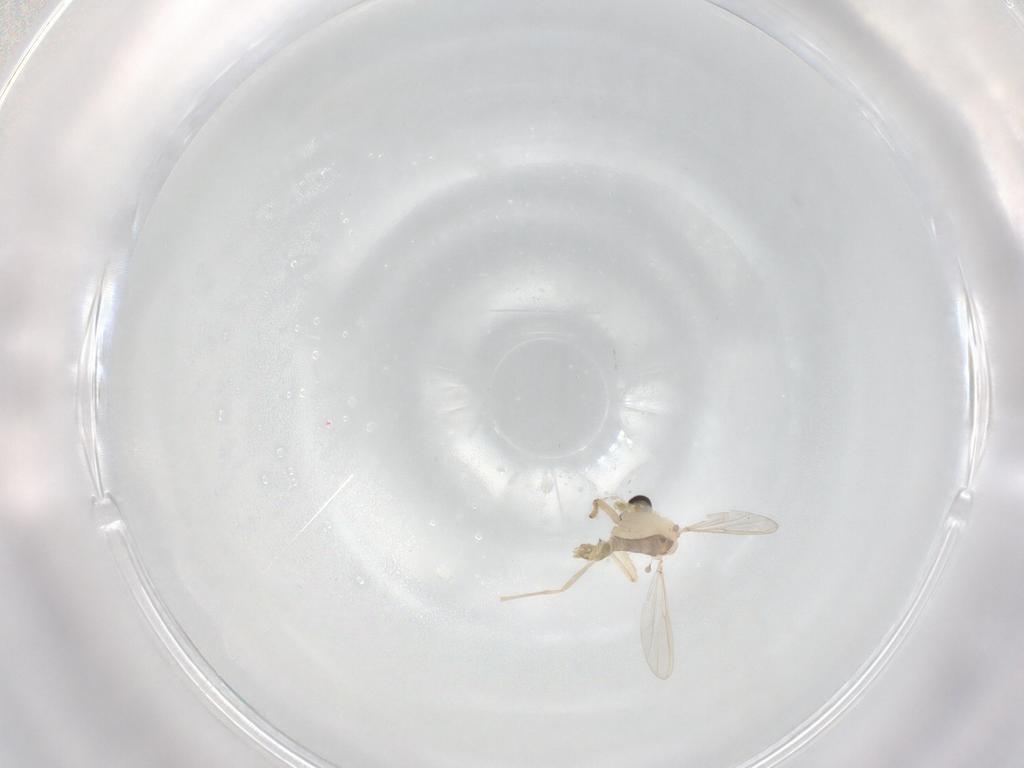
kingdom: Animalia
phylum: Arthropoda
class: Insecta
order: Diptera
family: Chironomidae
